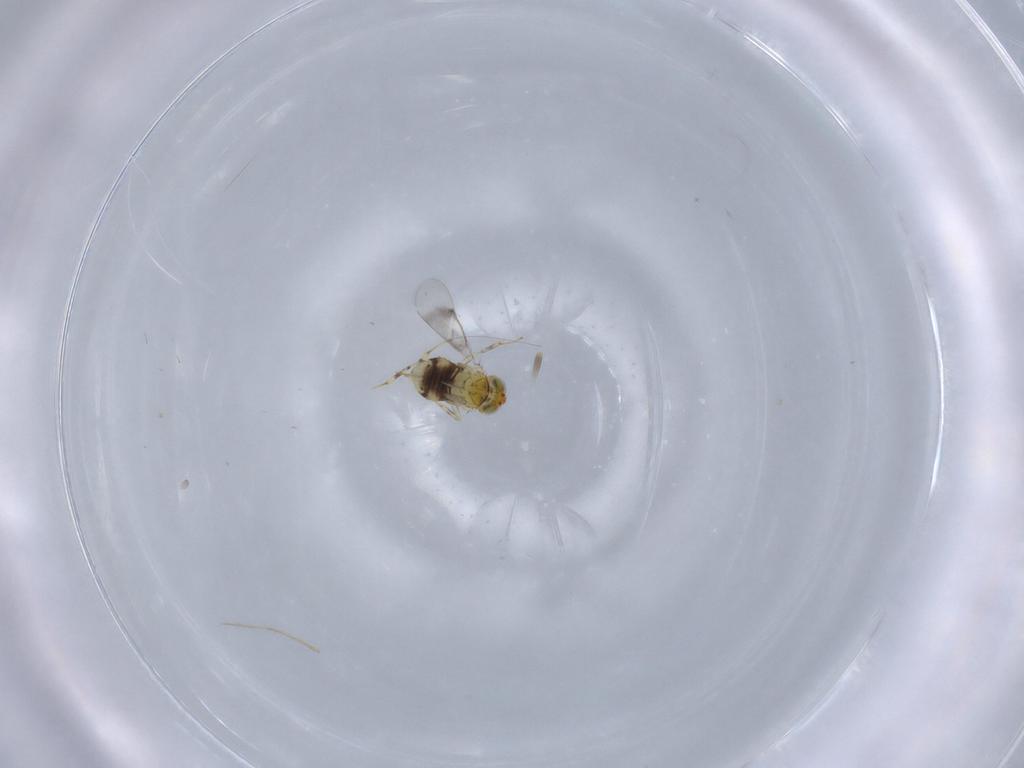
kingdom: Animalia
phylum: Arthropoda
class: Insecta
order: Hymenoptera
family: Aphelinidae
